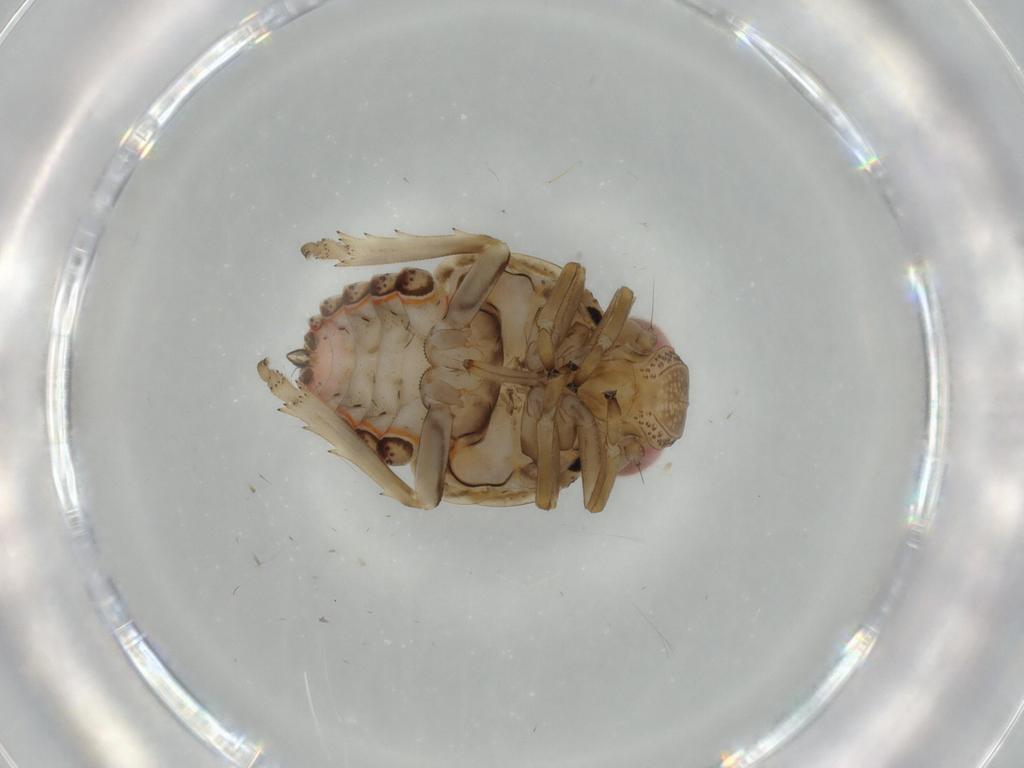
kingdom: Animalia
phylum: Arthropoda
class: Insecta
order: Hemiptera
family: Issidae
